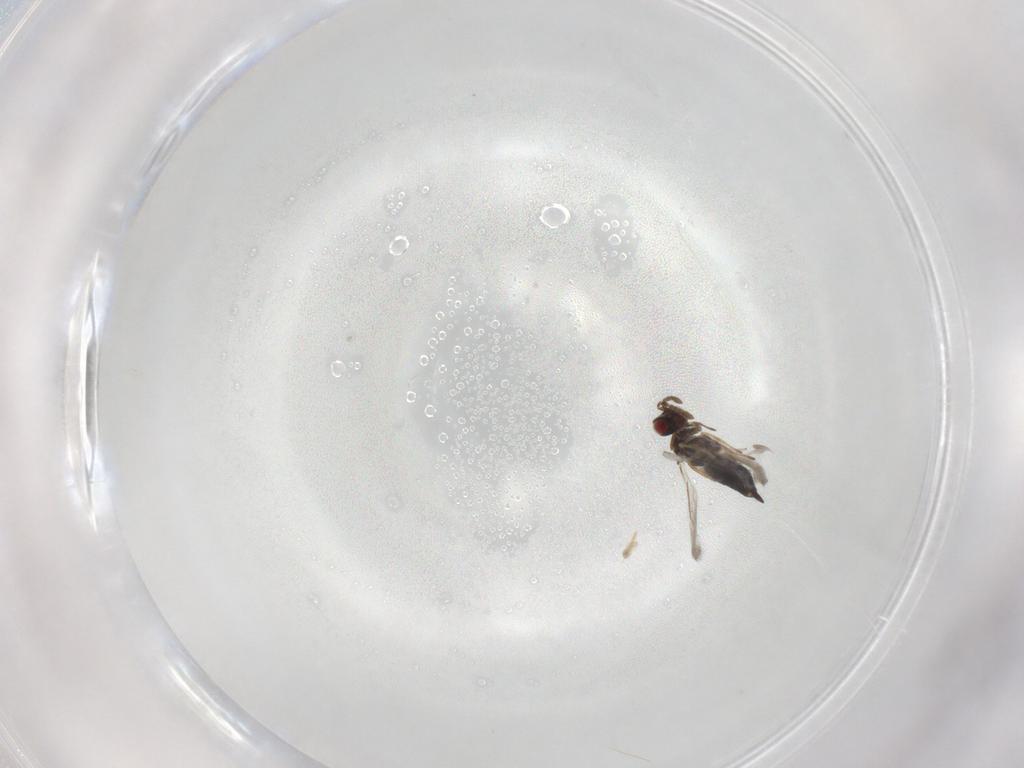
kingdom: Animalia
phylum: Arthropoda
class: Insecta
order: Hymenoptera
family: Eulophidae
